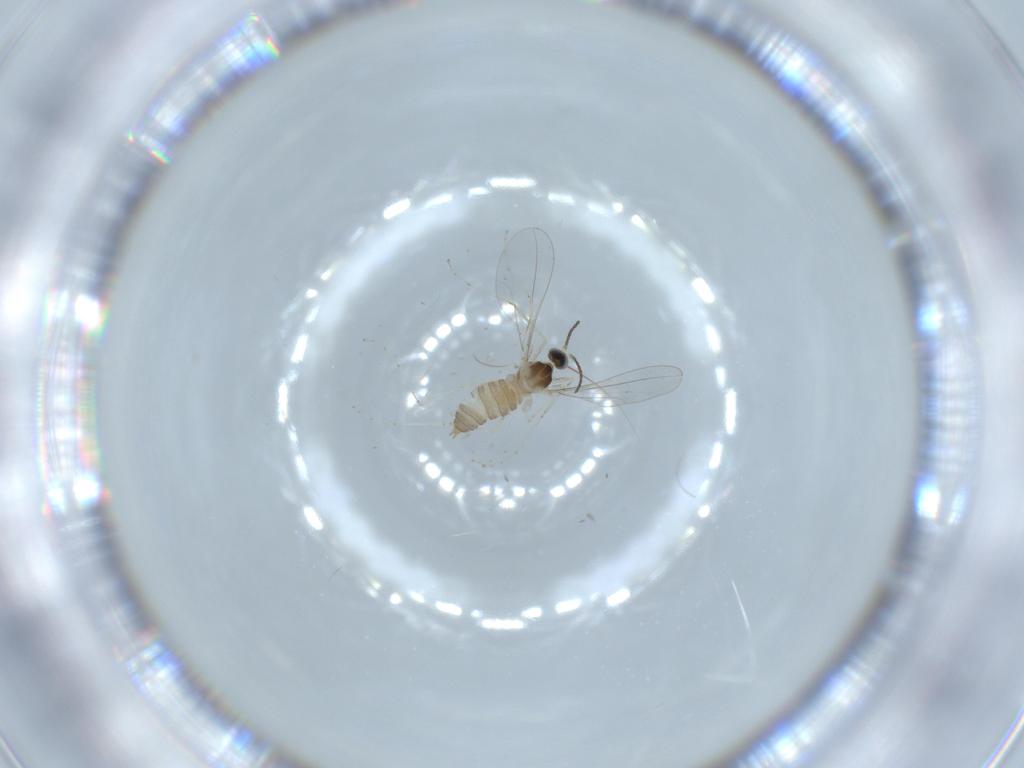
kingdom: Animalia
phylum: Arthropoda
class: Insecta
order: Diptera
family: Cecidomyiidae
